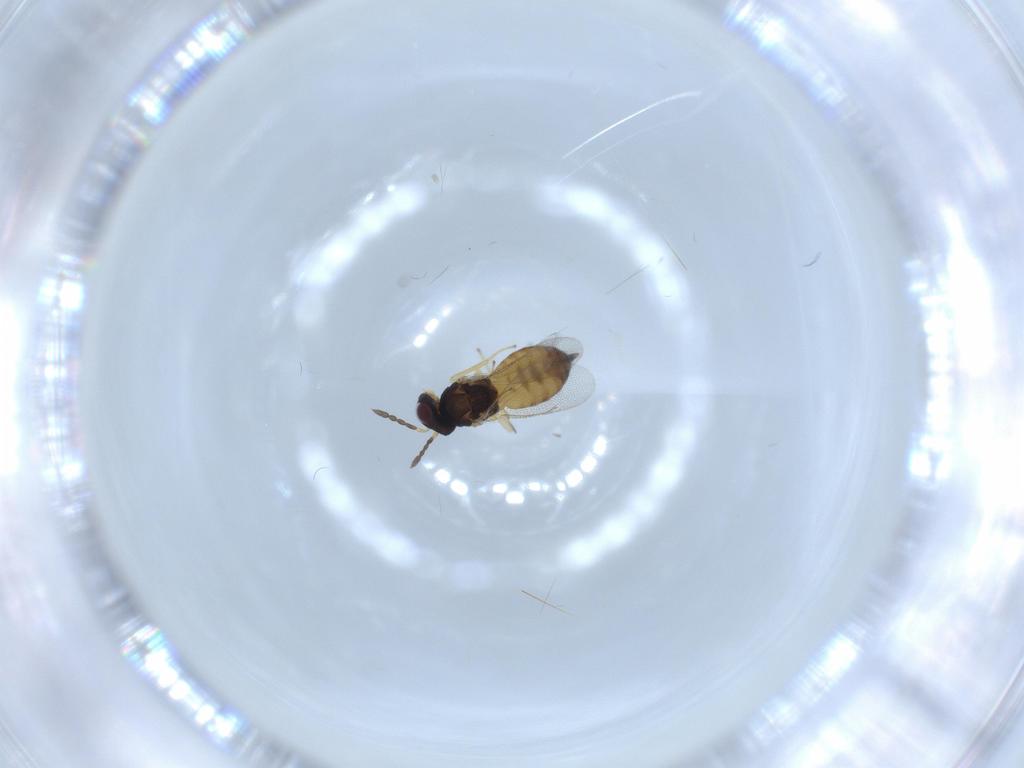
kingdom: Animalia
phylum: Arthropoda
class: Insecta
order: Hymenoptera
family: Eulophidae
